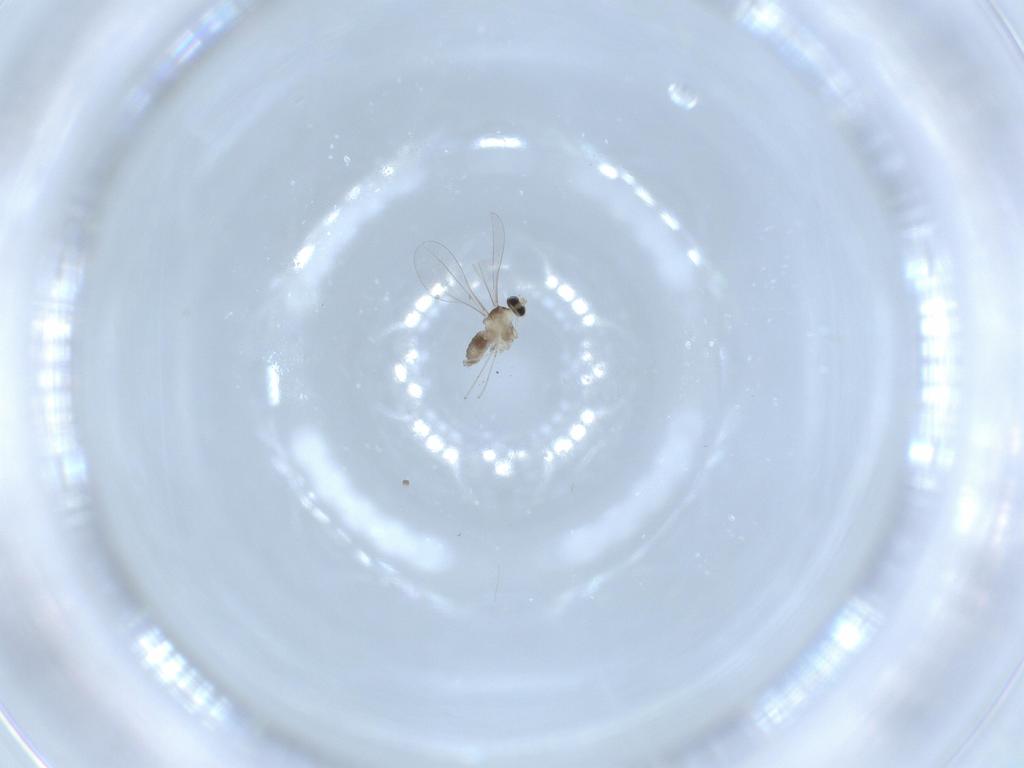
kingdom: Animalia
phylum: Arthropoda
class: Insecta
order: Diptera
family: Cecidomyiidae
